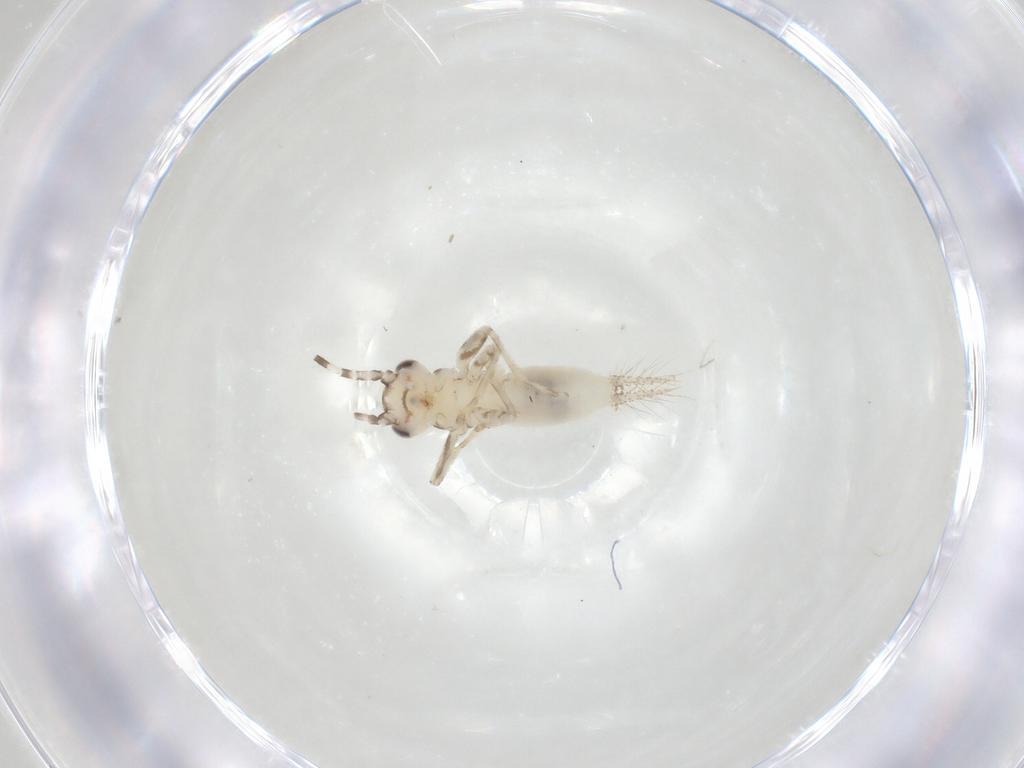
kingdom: Animalia
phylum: Arthropoda
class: Insecta
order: Orthoptera
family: Trigonidiidae
